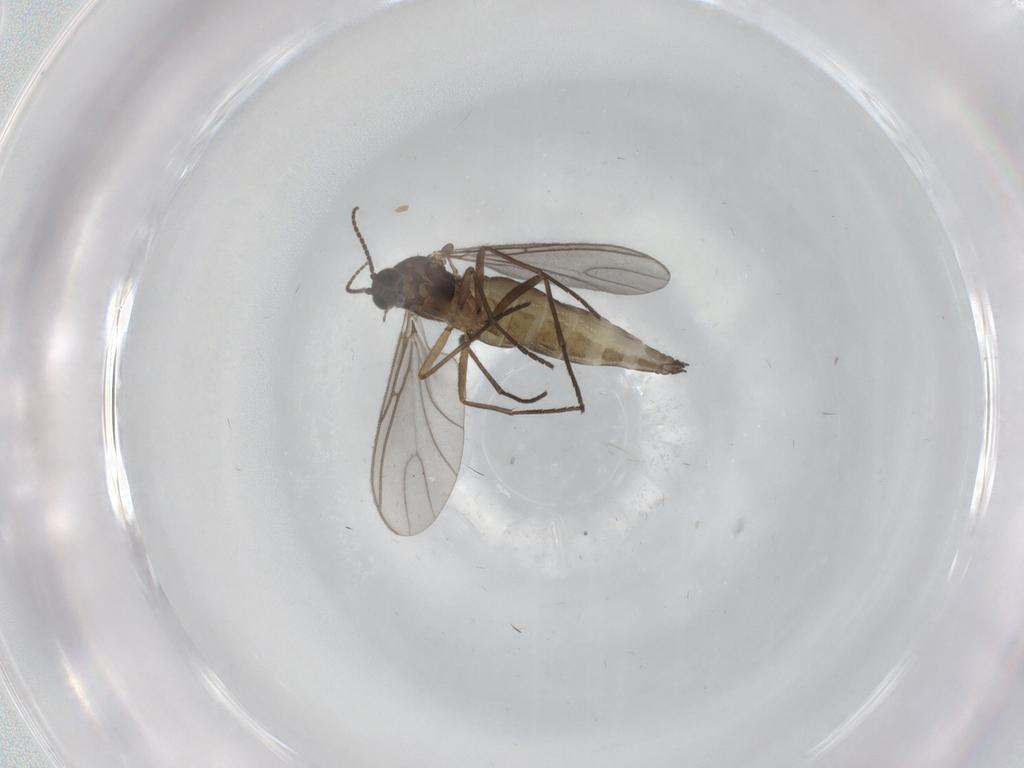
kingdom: Animalia
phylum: Arthropoda
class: Insecta
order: Diptera
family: Sciaridae
